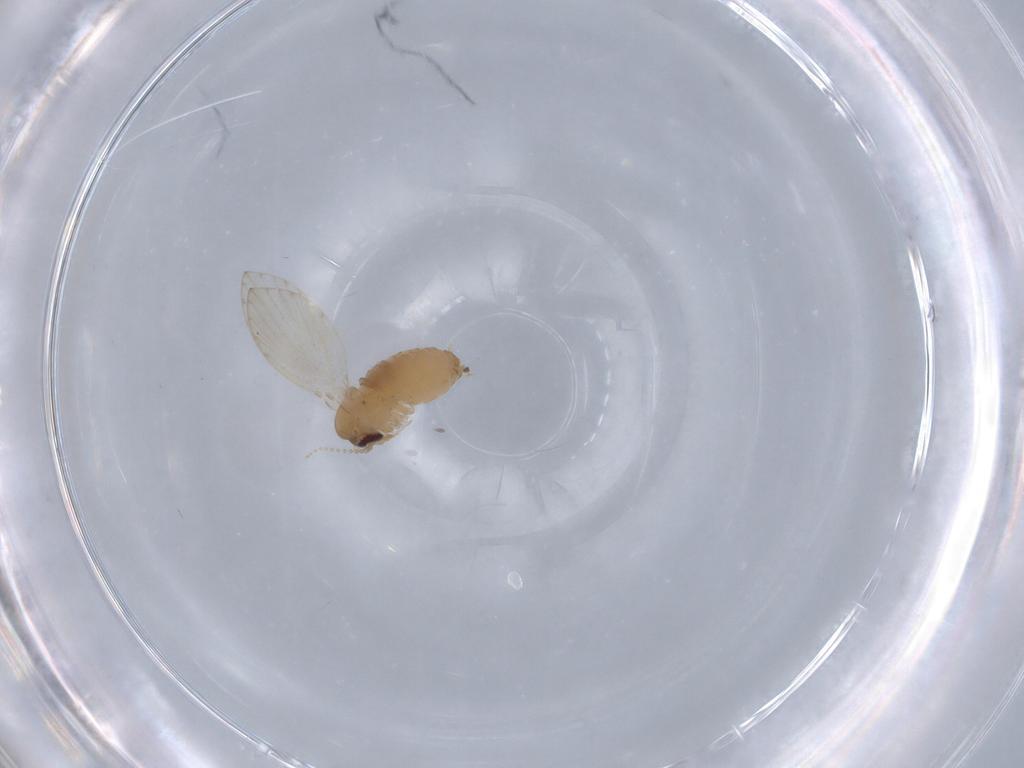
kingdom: Animalia
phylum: Arthropoda
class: Insecta
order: Diptera
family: Psychodidae
